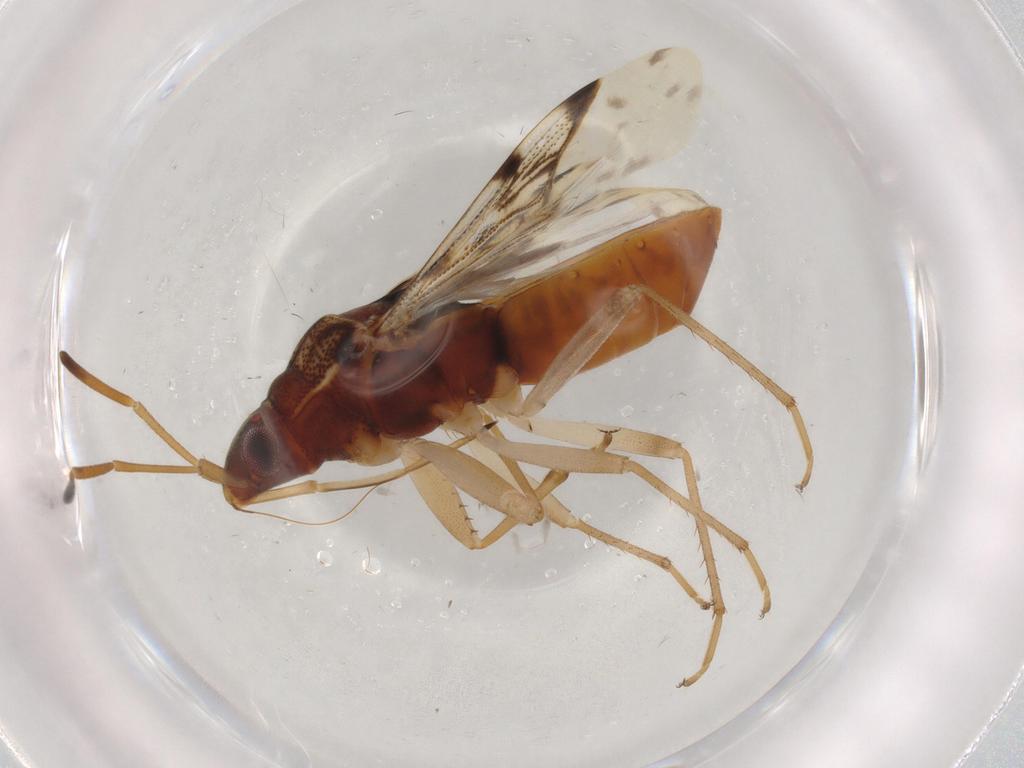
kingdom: Animalia
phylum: Arthropoda
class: Insecta
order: Hemiptera
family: Rhyparochromidae
